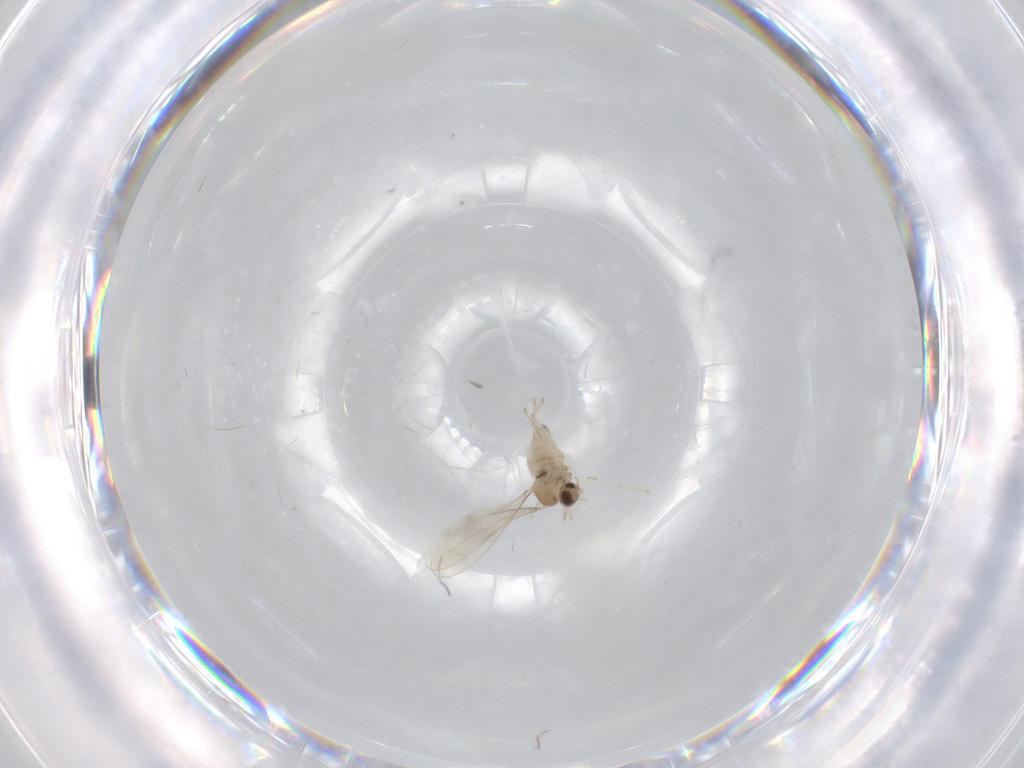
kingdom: Animalia
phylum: Arthropoda
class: Insecta
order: Diptera
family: Cecidomyiidae
